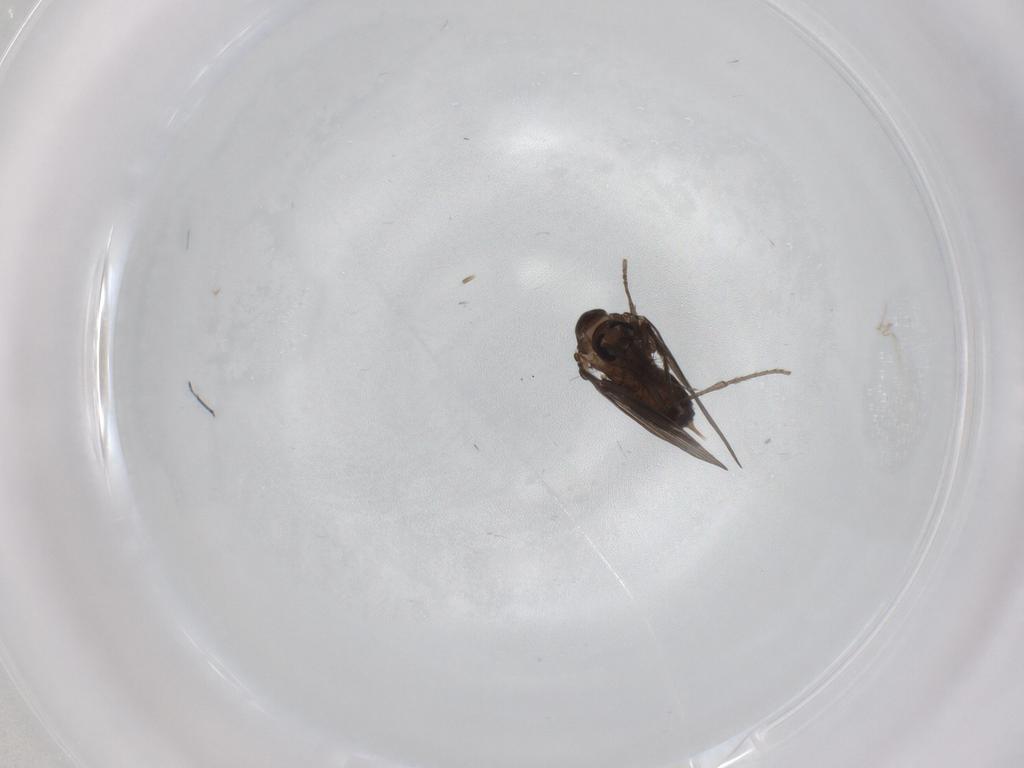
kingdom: Animalia
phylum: Arthropoda
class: Insecta
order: Diptera
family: Psychodidae
